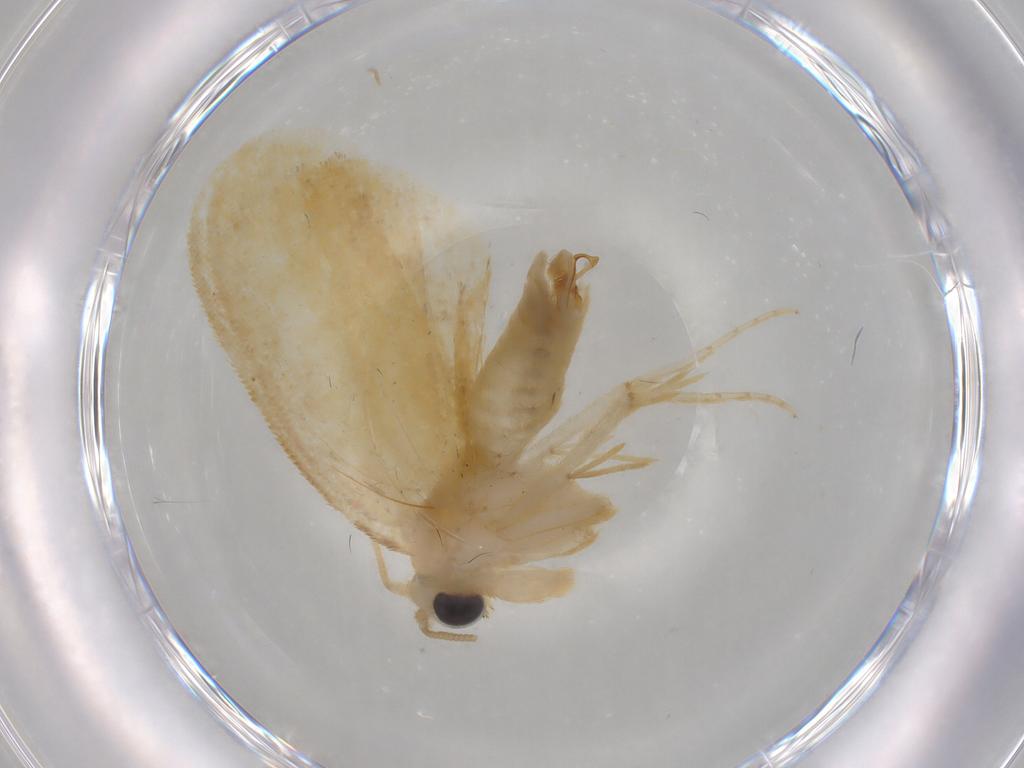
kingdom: Animalia
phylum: Arthropoda
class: Insecta
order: Lepidoptera
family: Psychidae
